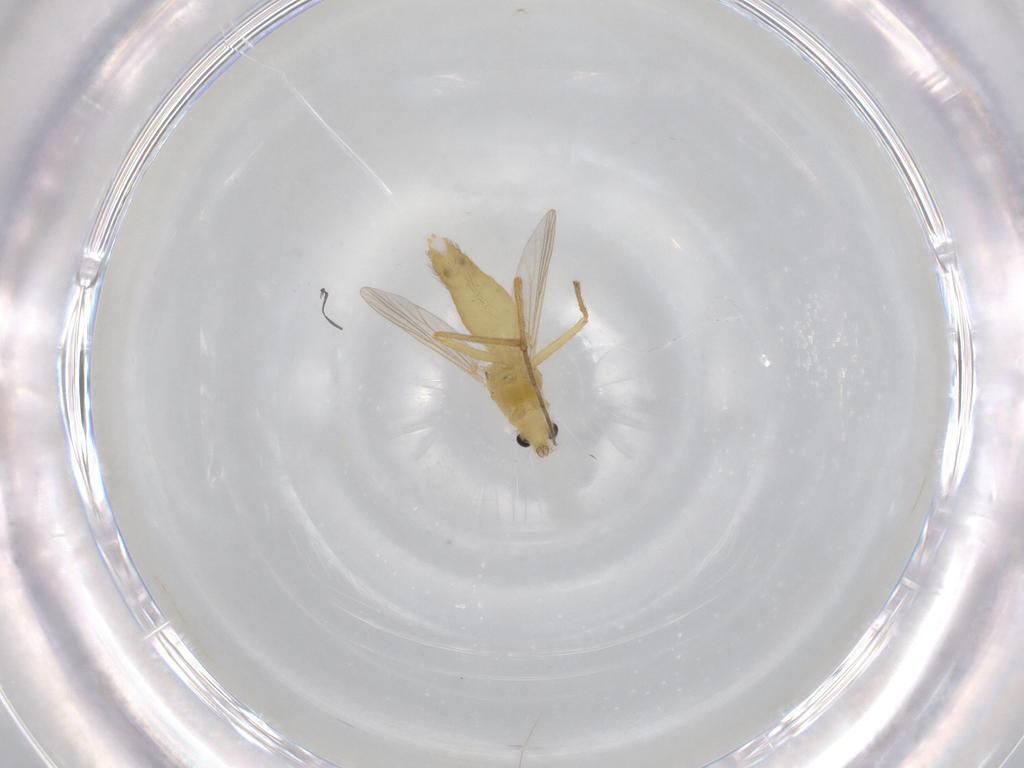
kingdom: Animalia
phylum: Arthropoda
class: Insecta
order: Diptera
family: Chironomidae
